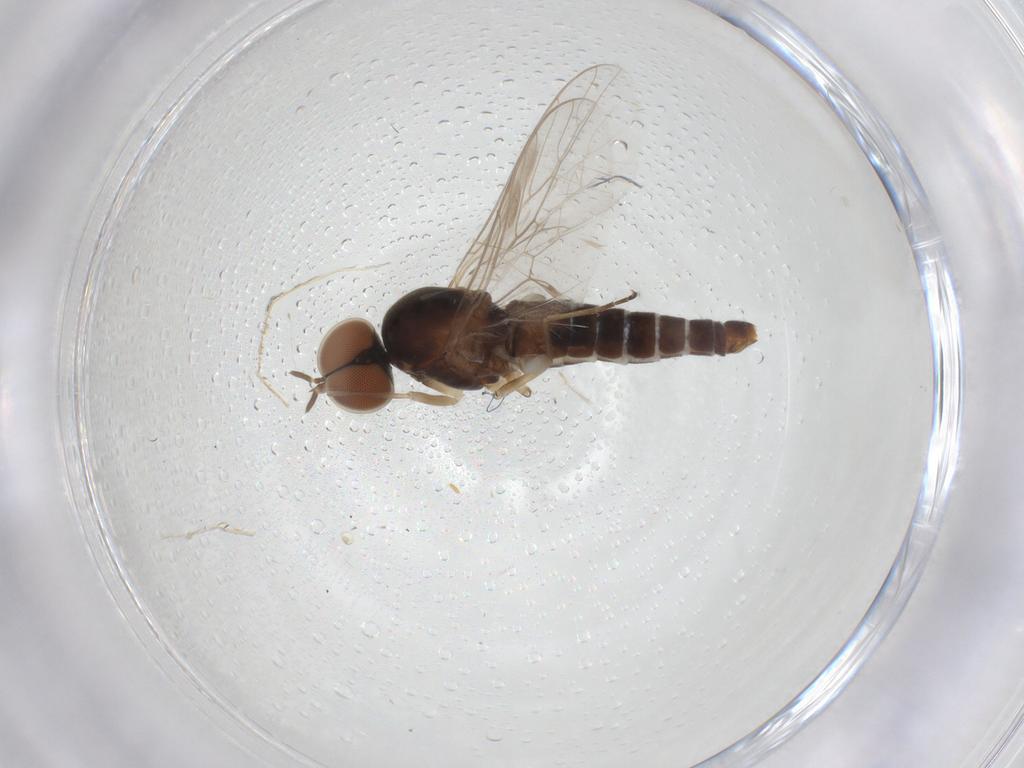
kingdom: Animalia
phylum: Arthropoda
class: Insecta
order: Diptera
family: Scenopinidae
